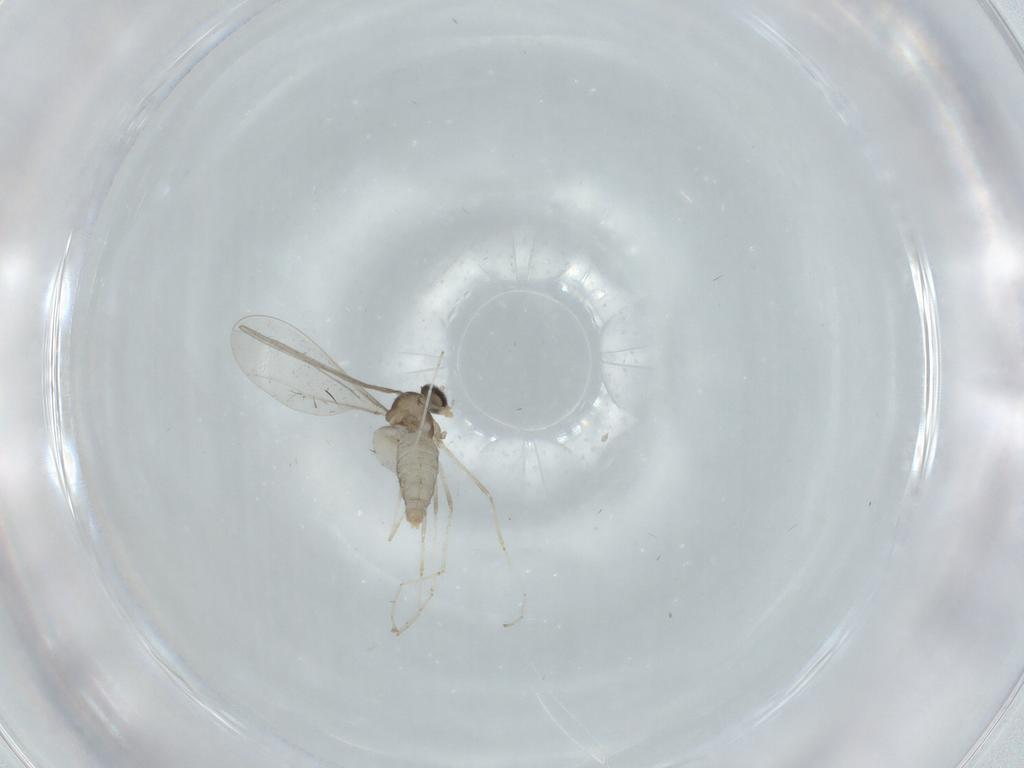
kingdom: Animalia
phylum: Arthropoda
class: Insecta
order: Diptera
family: Cecidomyiidae
